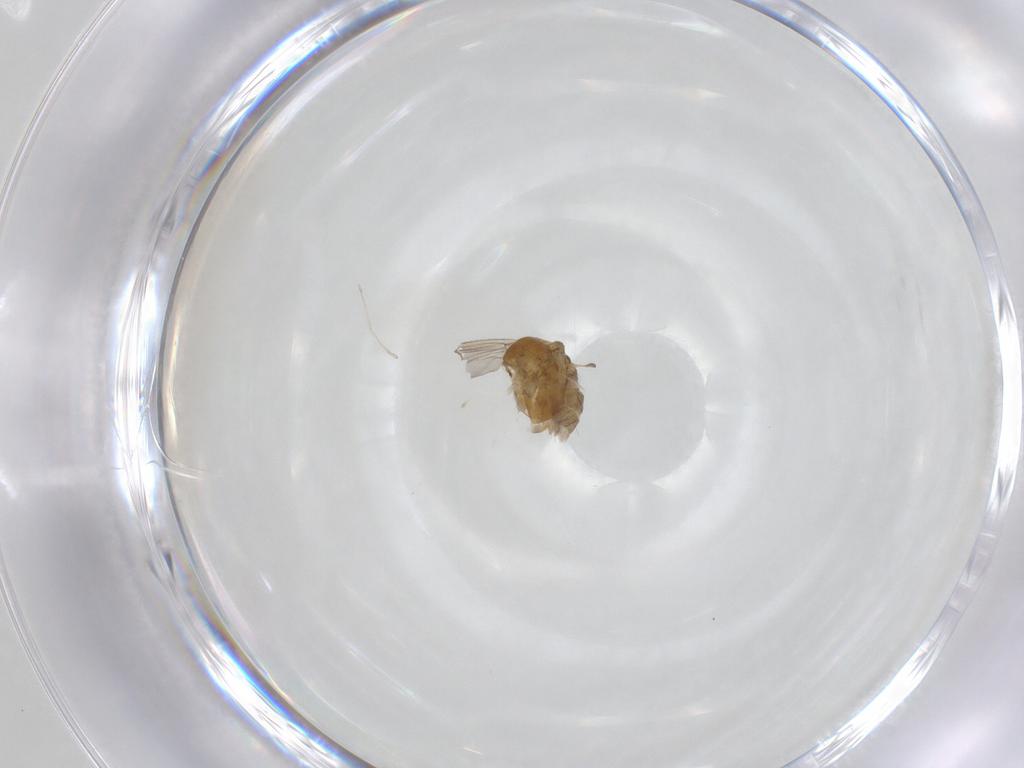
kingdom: Animalia
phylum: Arthropoda
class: Insecta
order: Diptera
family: Chironomidae
